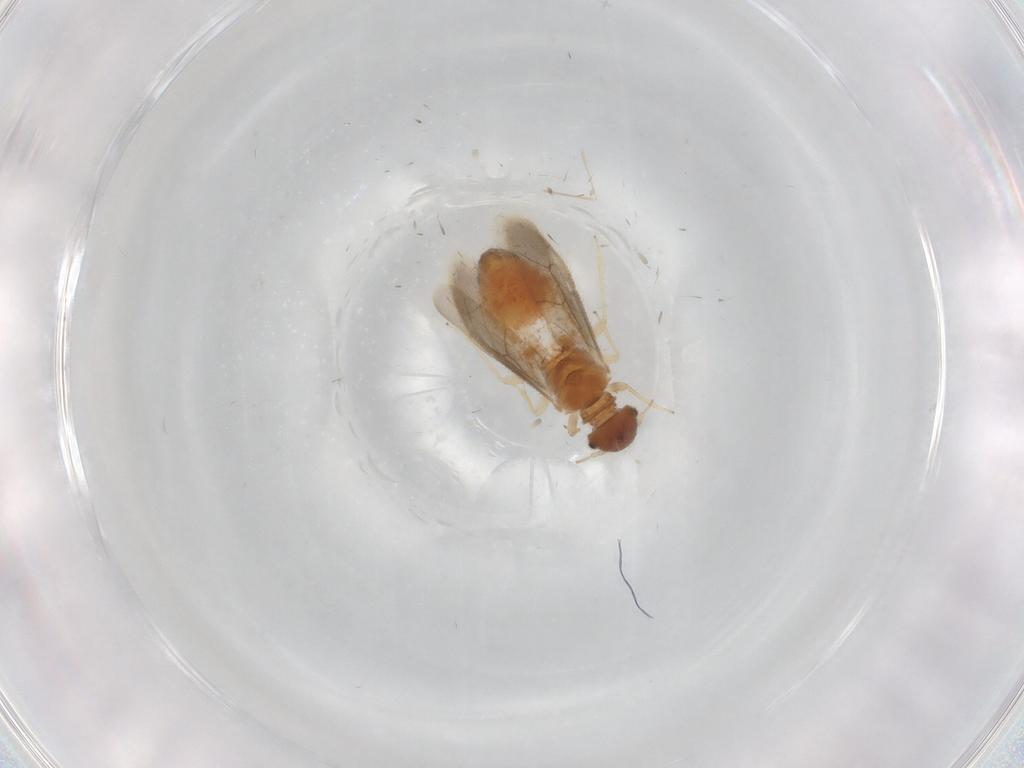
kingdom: Animalia
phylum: Arthropoda
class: Insecta
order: Psocodea
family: Archipsocidae
